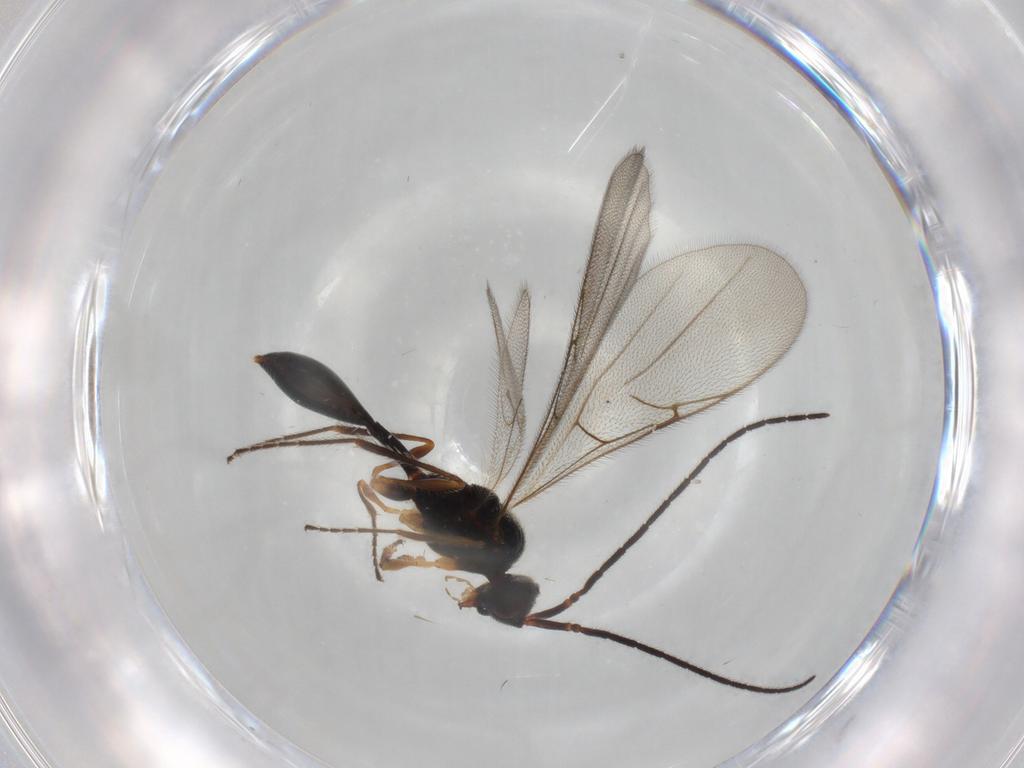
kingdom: Animalia
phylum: Arthropoda
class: Insecta
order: Hymenoptera
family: Diapriidae
